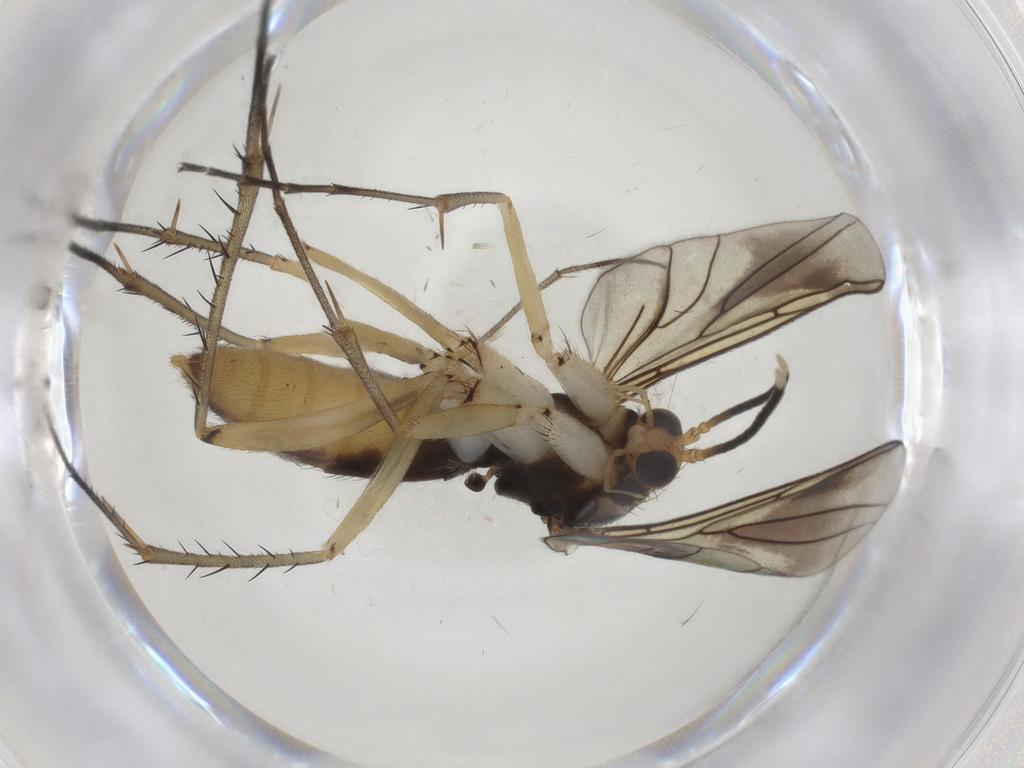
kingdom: Animalia
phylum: Arthropoda
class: Insecta
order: Diptera
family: Mycetophilidae
